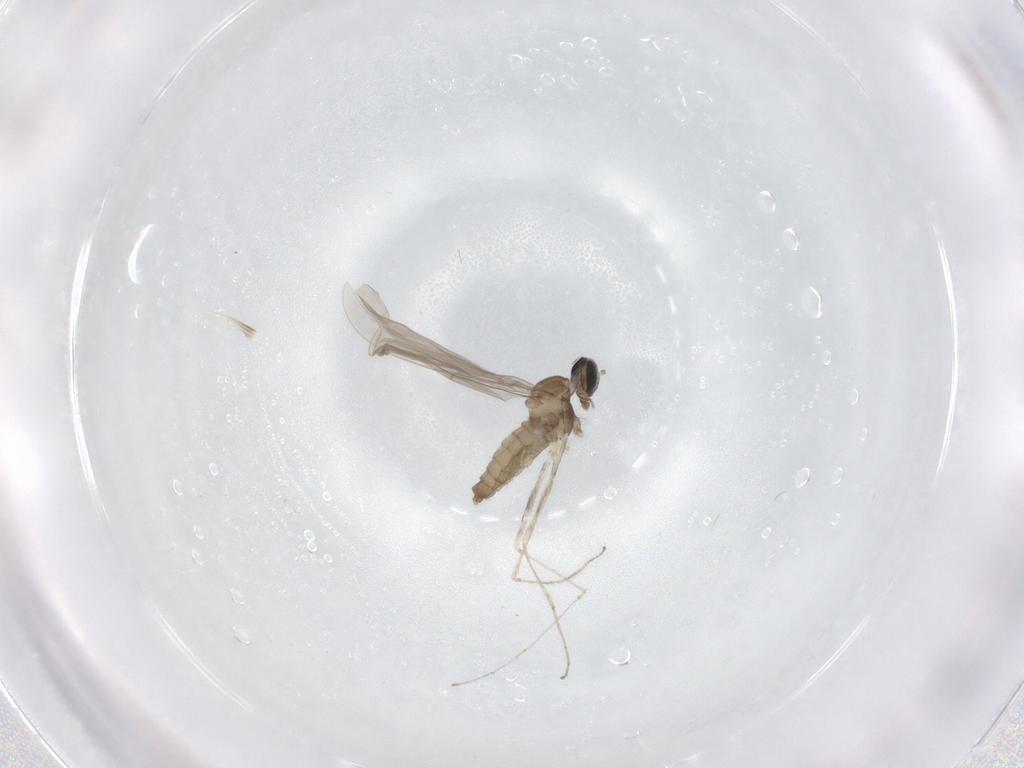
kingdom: Animalia
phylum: Arthropoda
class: Insecta
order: Diptera
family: Cecidomyiidae
